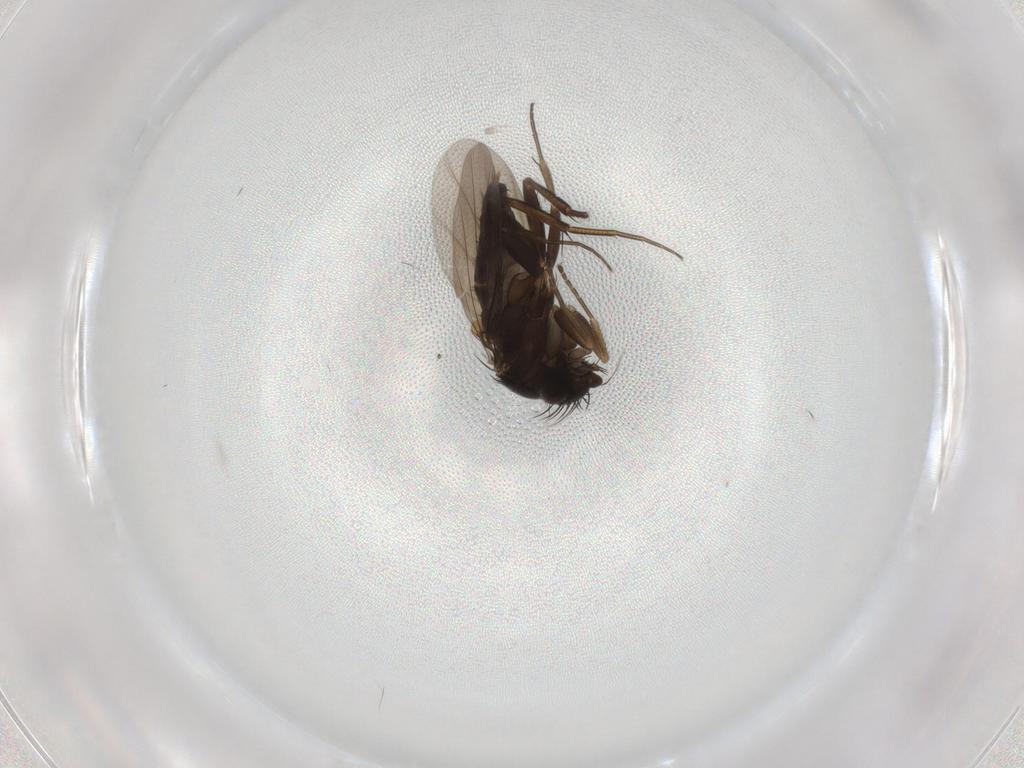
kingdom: Animalia
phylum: Arthropoda
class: Insecta
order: Diptera
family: Phoridae
